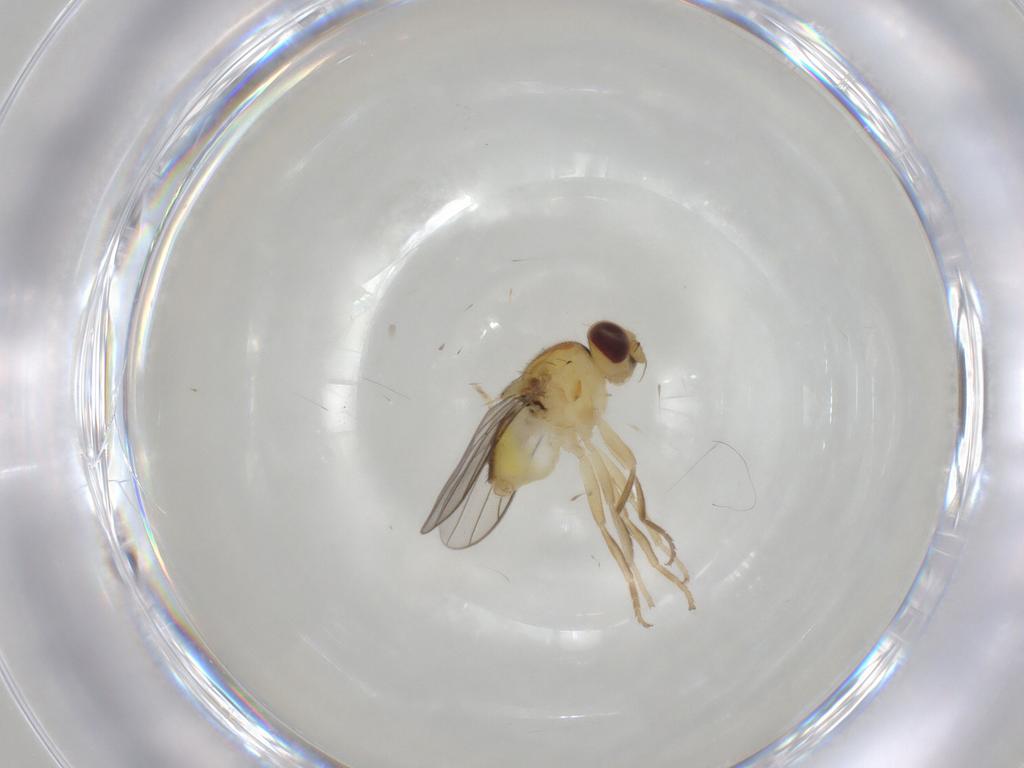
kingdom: Animalia
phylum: Arthropoda
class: Insecta
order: Diptera
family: Chloropidae
